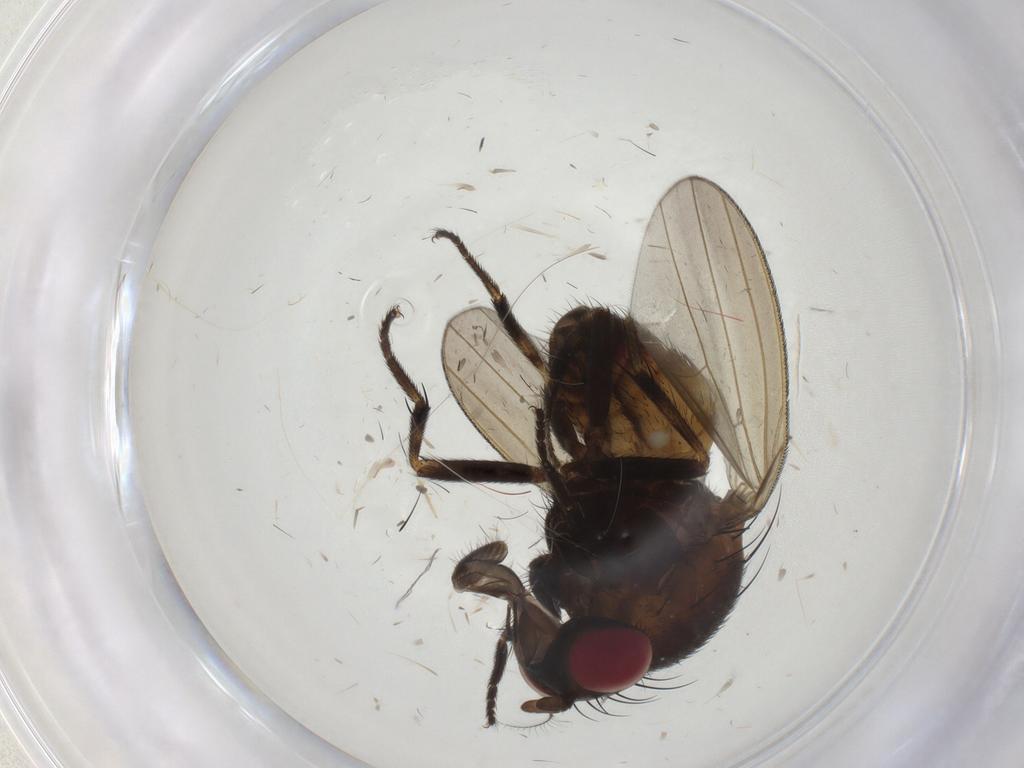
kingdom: Animalia
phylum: Arthropoda
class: Insecta
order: Diptera
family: Lauxaniidae
